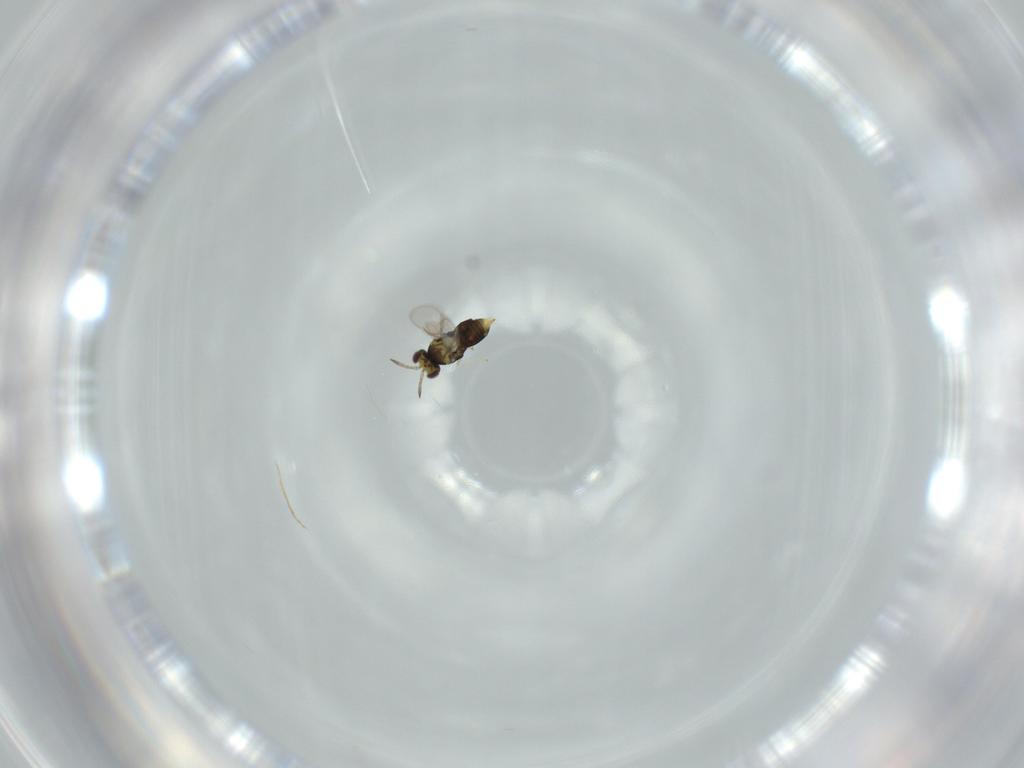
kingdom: Animalia
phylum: Arthropoda
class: Insecta
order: Hymenoptera
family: Aphelinidae
